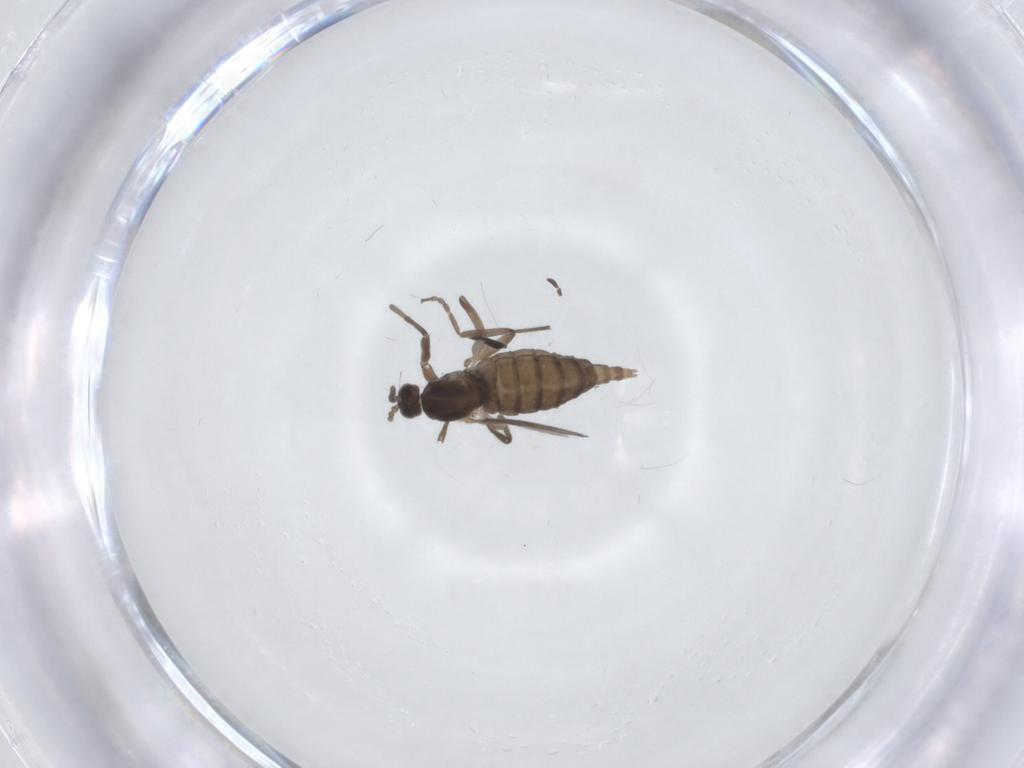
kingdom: Animalia
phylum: Arthropoda
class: Insecta
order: Diptera
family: Cecidomyiidae
